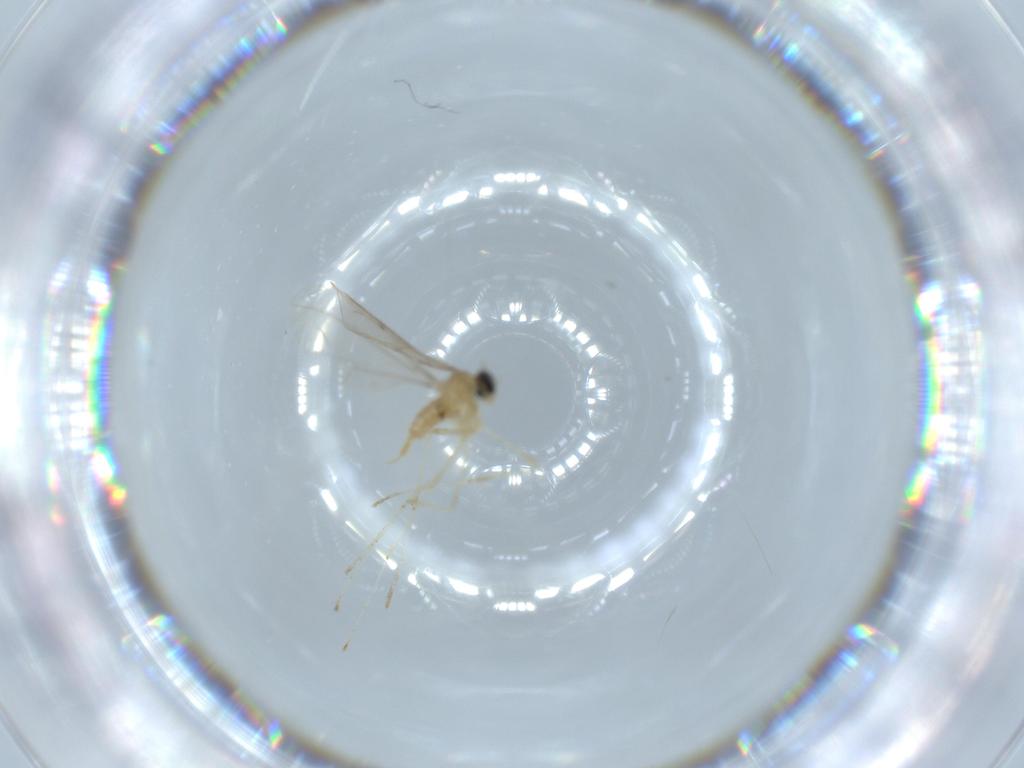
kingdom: Animalia
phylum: Arthropoda
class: Insecta
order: Diptera
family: Cecidomyiidae
